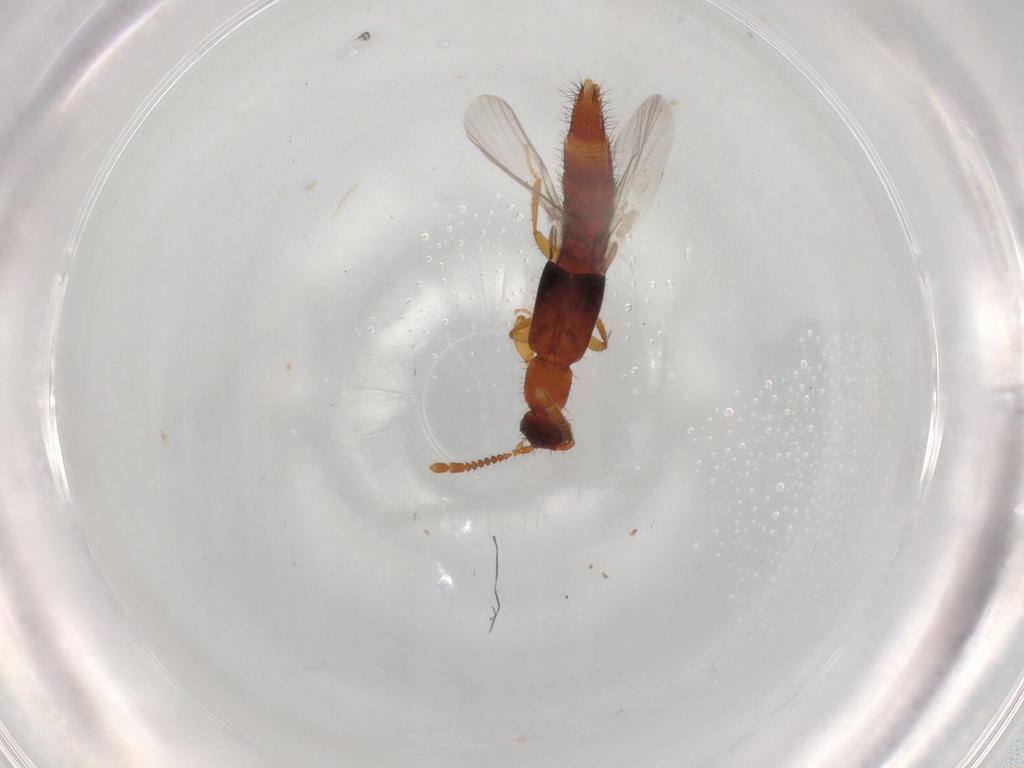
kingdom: Animalia
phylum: Arthropoda
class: Insecta
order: Coleoptera
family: Staphylinidae
